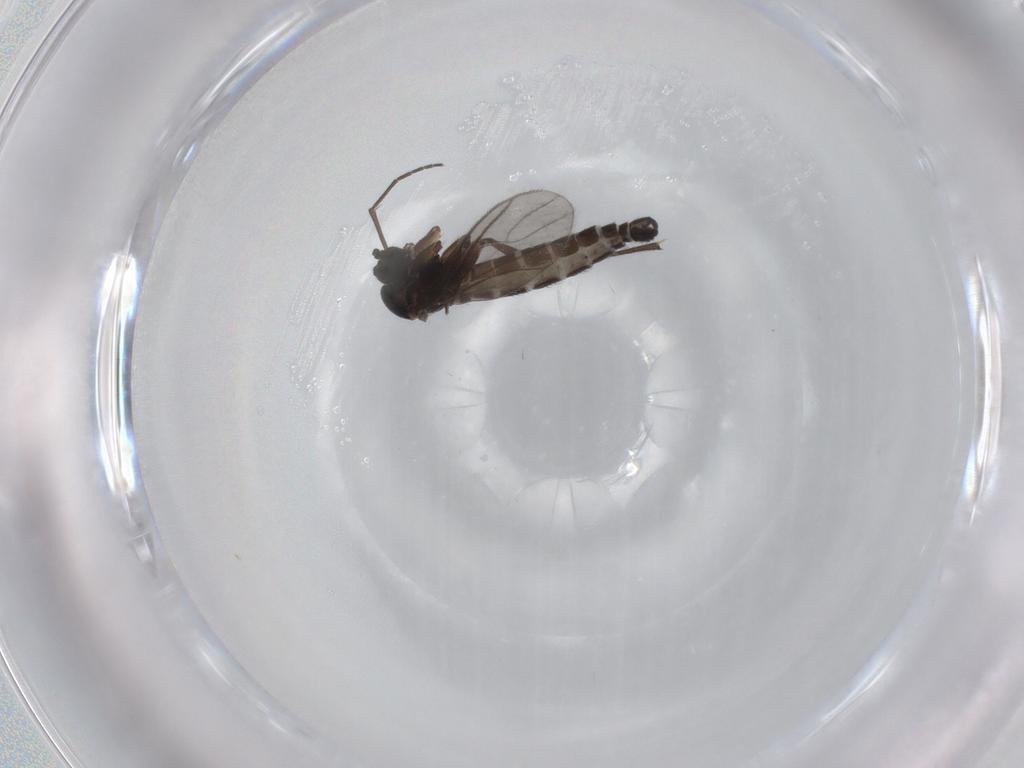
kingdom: Animalia
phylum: Arthropoda
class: Insecta
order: Diptera
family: Sciaridae
